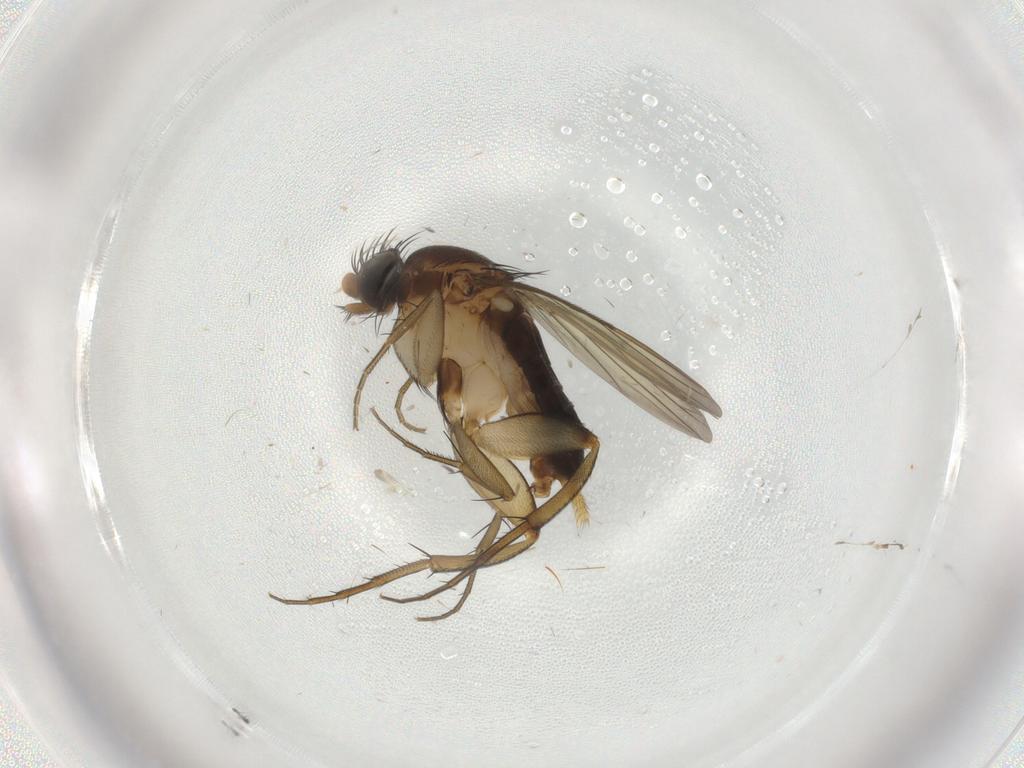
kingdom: Animalia
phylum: Arthropoda
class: Insecta
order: Diptera
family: Phoridae
